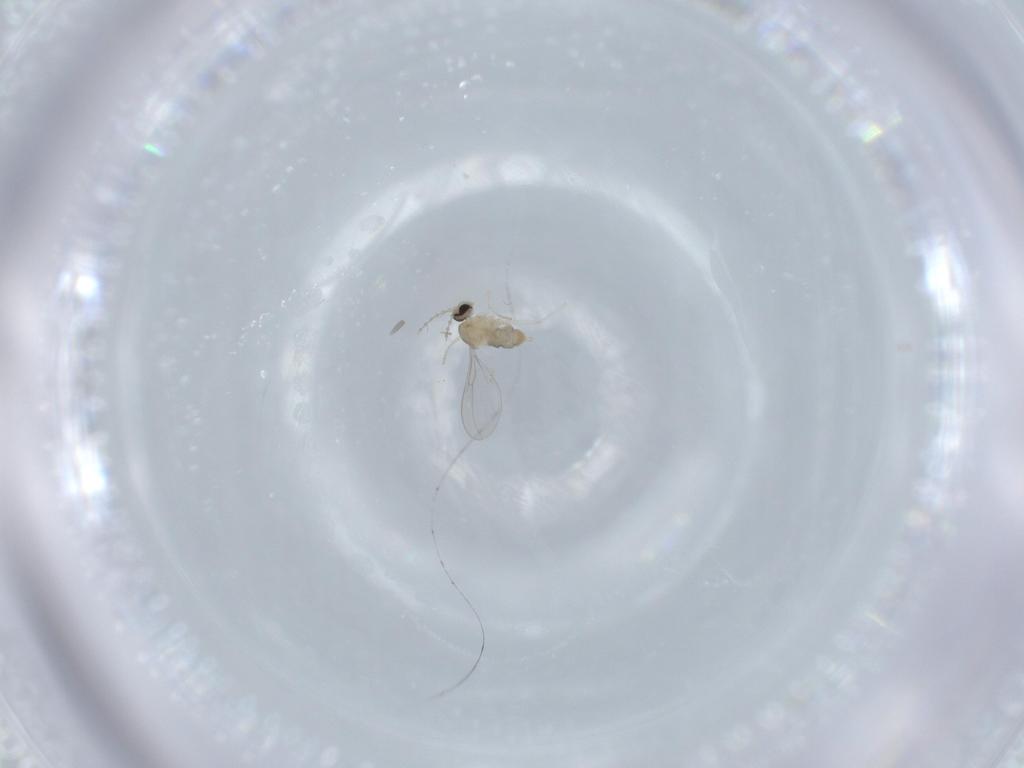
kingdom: Animalia
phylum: Arthropoda
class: Insecta
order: Diptera
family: Cecidomyiidae
